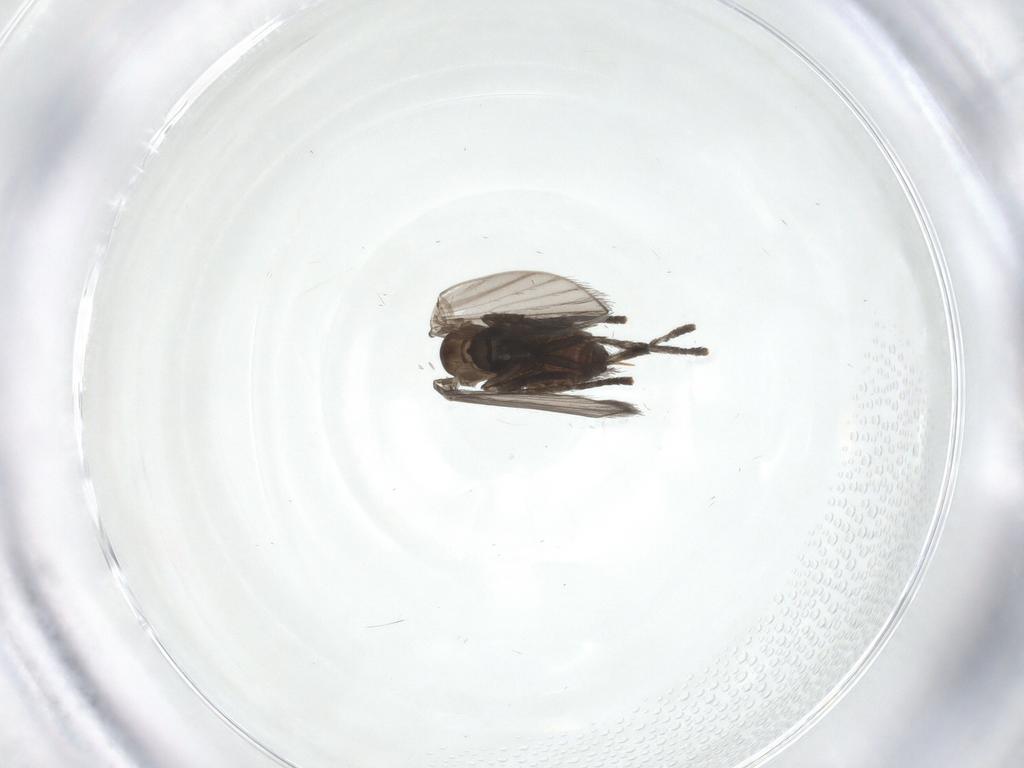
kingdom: Animalia
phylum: Arthropoda
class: Insecta
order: Diptera
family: Psychodidae
